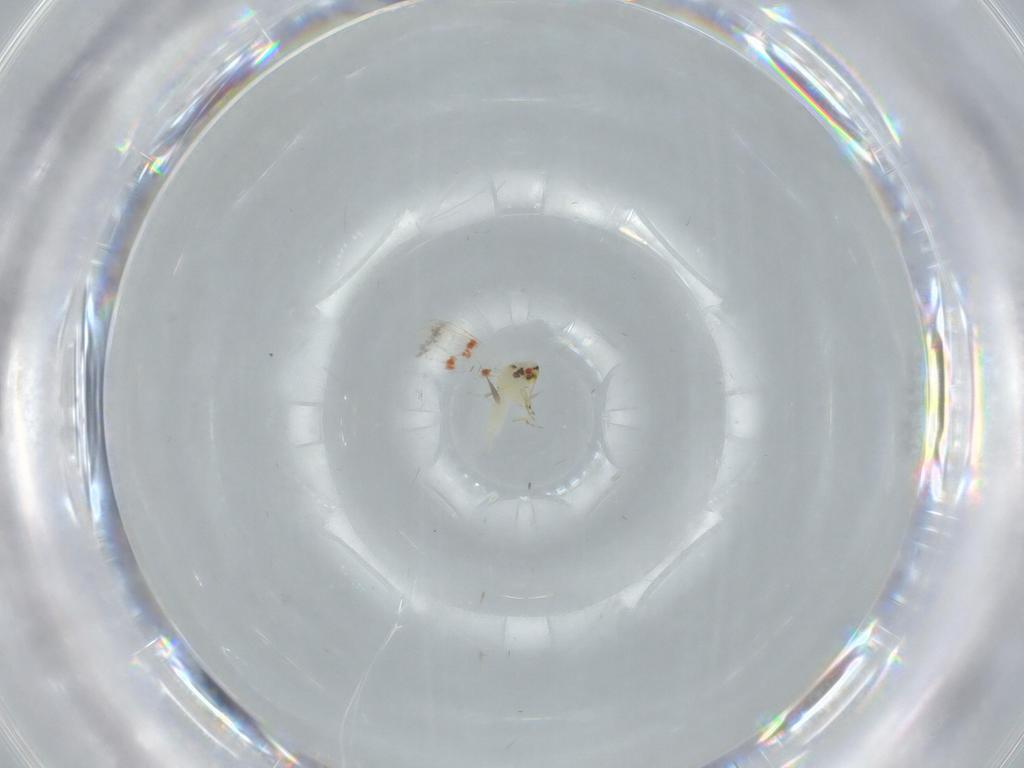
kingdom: Animalia
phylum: Arthropoda
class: Insecta
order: Hemiptera
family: Aleyrodidae
